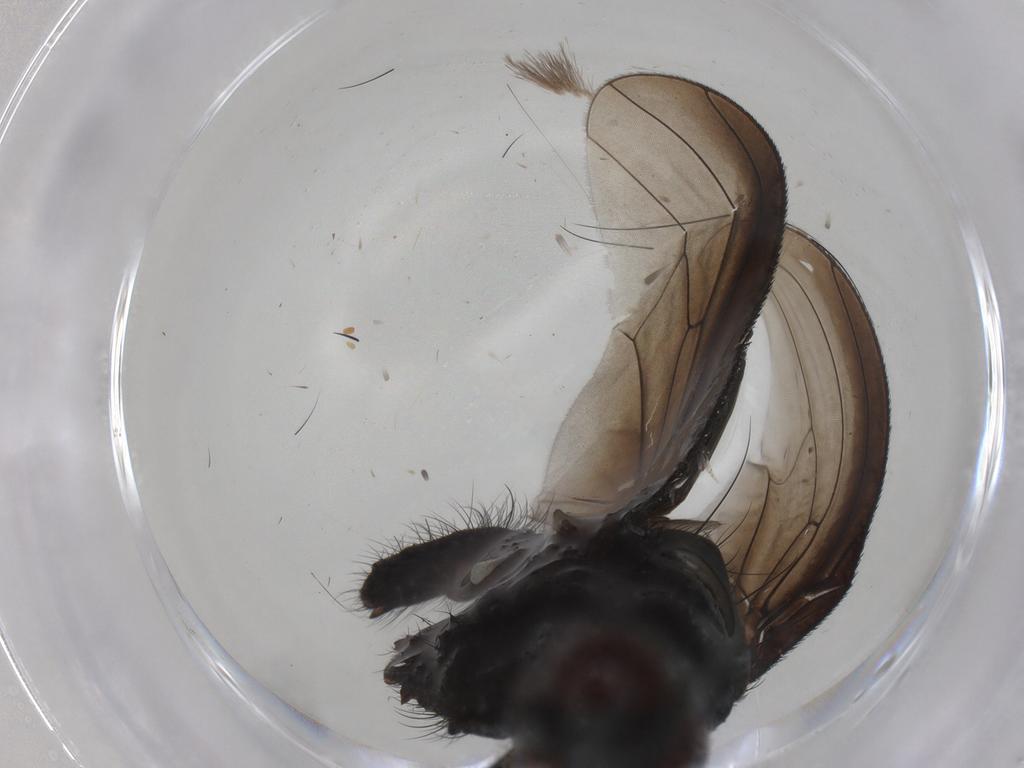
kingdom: Animalia
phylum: Arthropoda
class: Insecta
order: Diptera
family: Anthomyiidae
